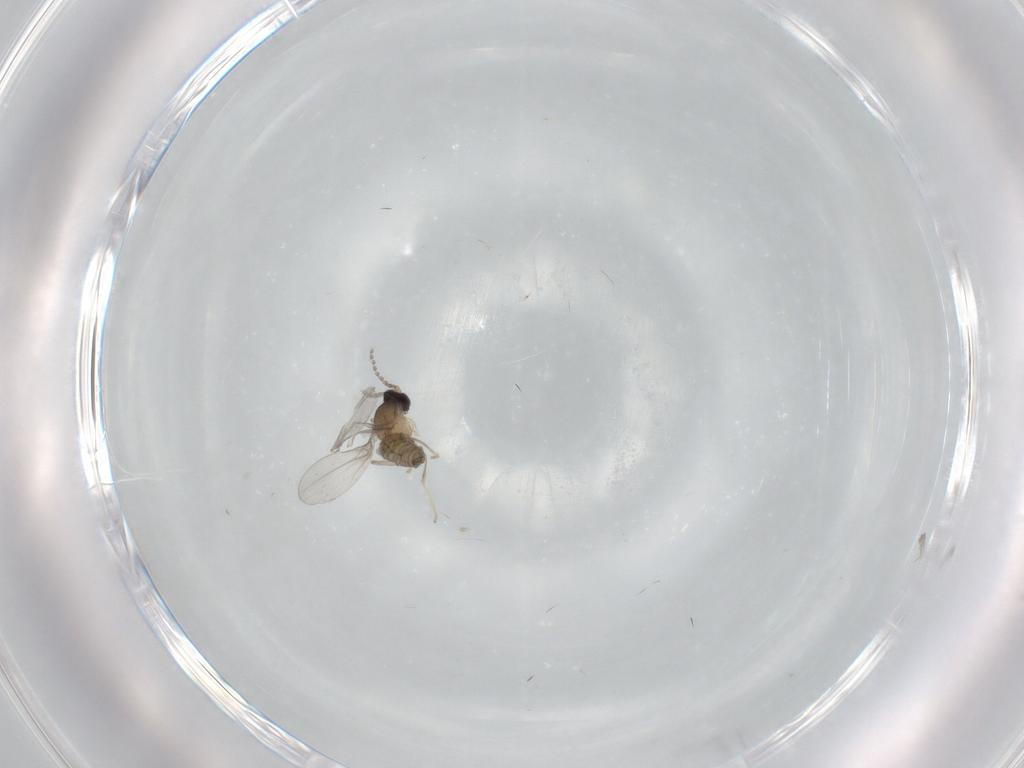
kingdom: Animalia
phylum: Arthropoda
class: Insecta
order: Diptera
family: Cecidomyiidae
